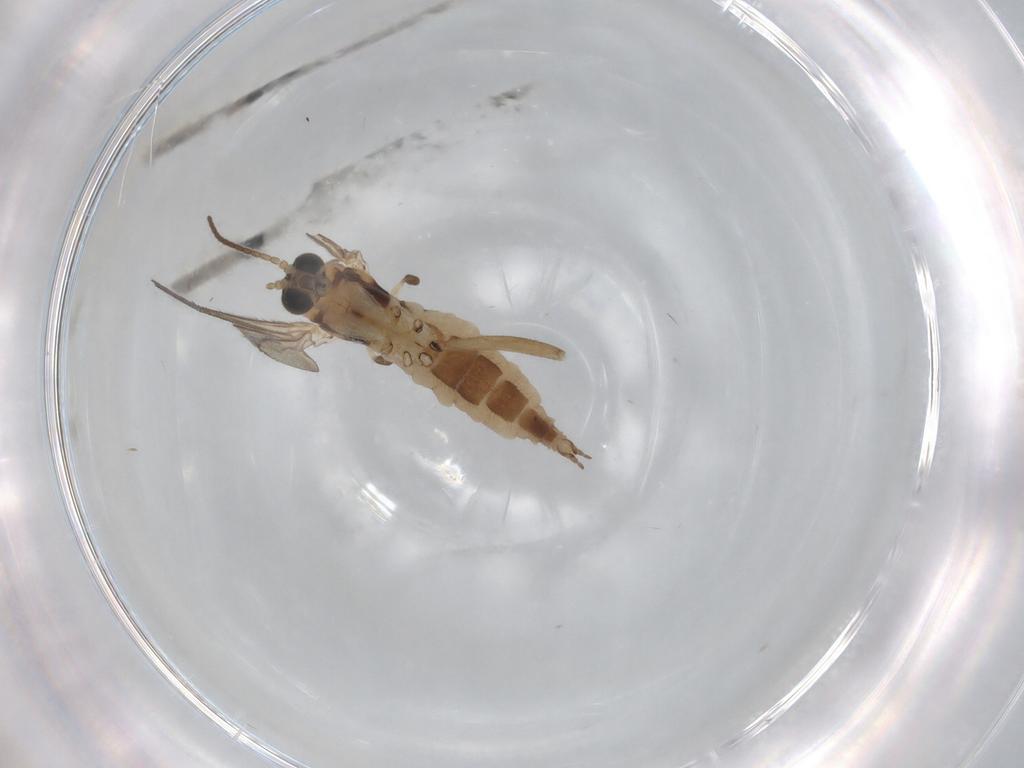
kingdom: Animalia
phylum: Arthropoda
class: Insecta
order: Diptera
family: Sciaridae
